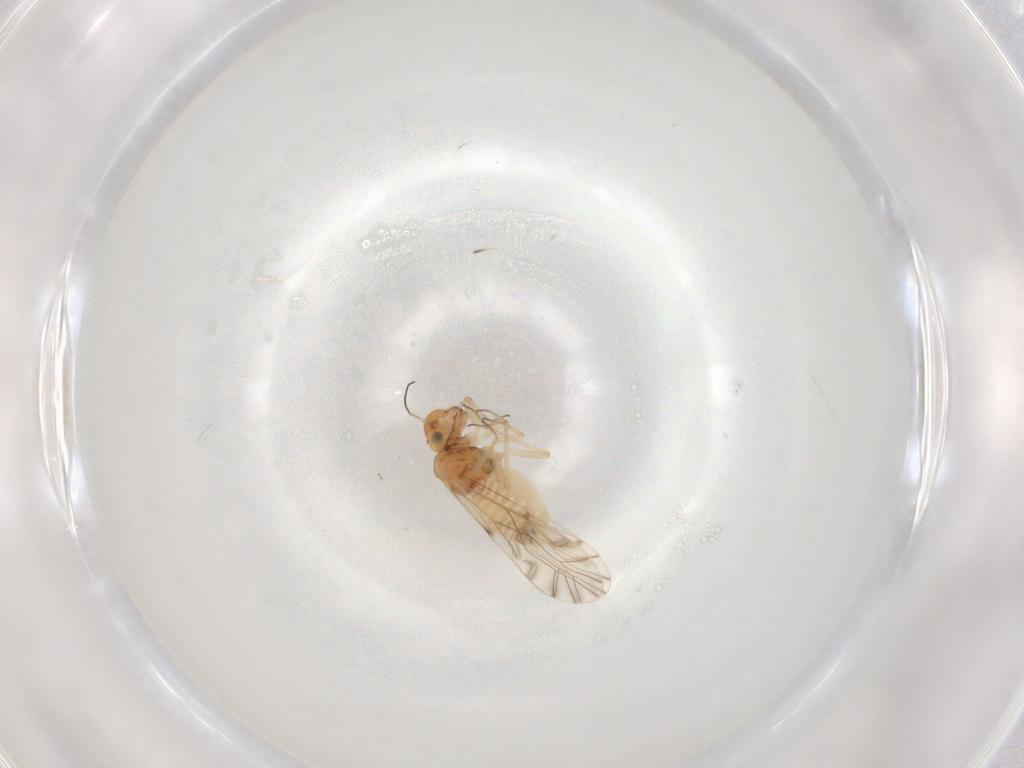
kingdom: Animalia
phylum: Arthropoda
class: Insecta
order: Psocodea
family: Lachesillidae
